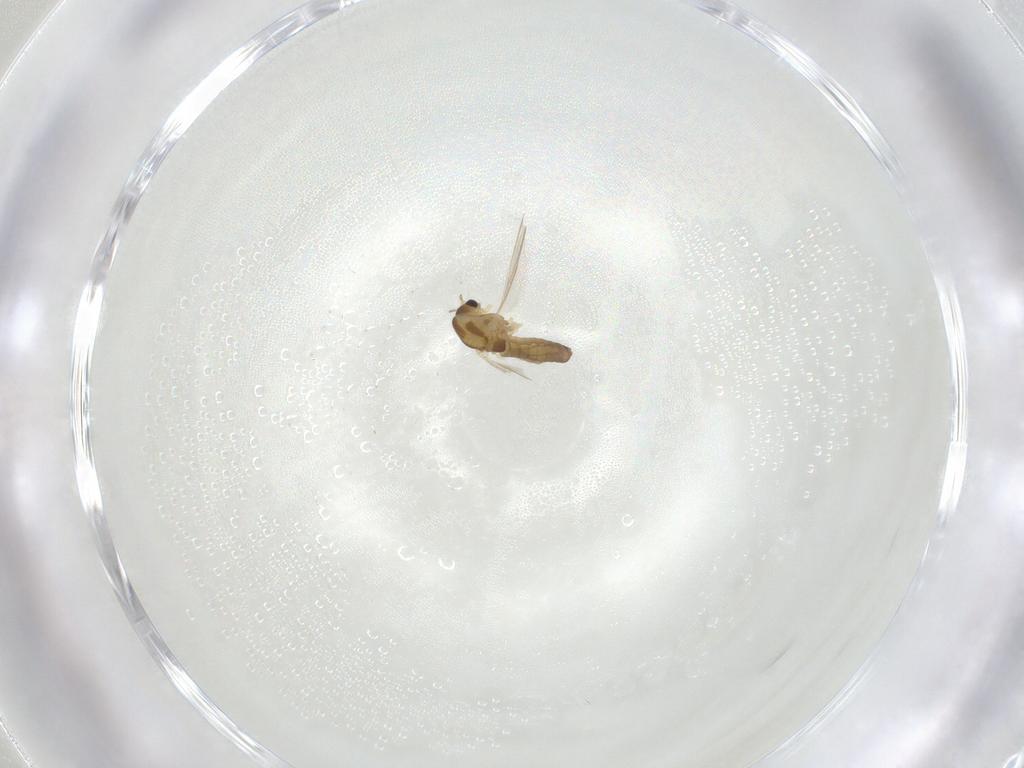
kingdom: Animalia
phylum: Arthropoda
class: Insecta
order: Diptera
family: Chironomidae
